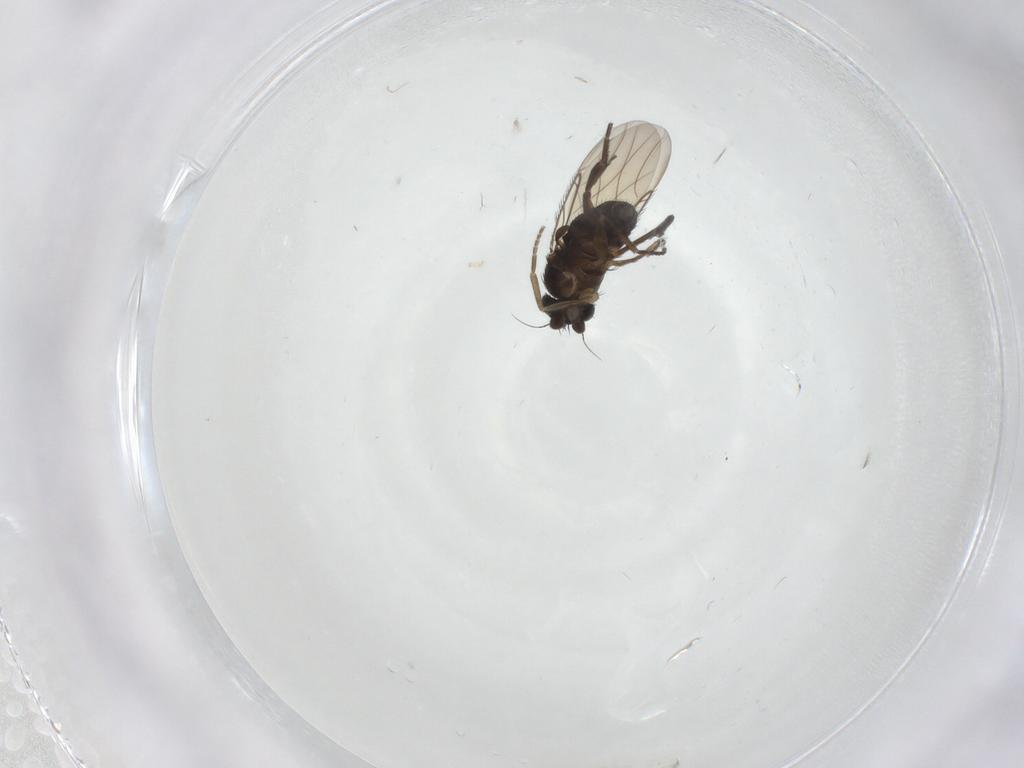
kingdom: Animalia
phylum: Arthropoda
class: Insecta
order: Diptera
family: Phoridae
